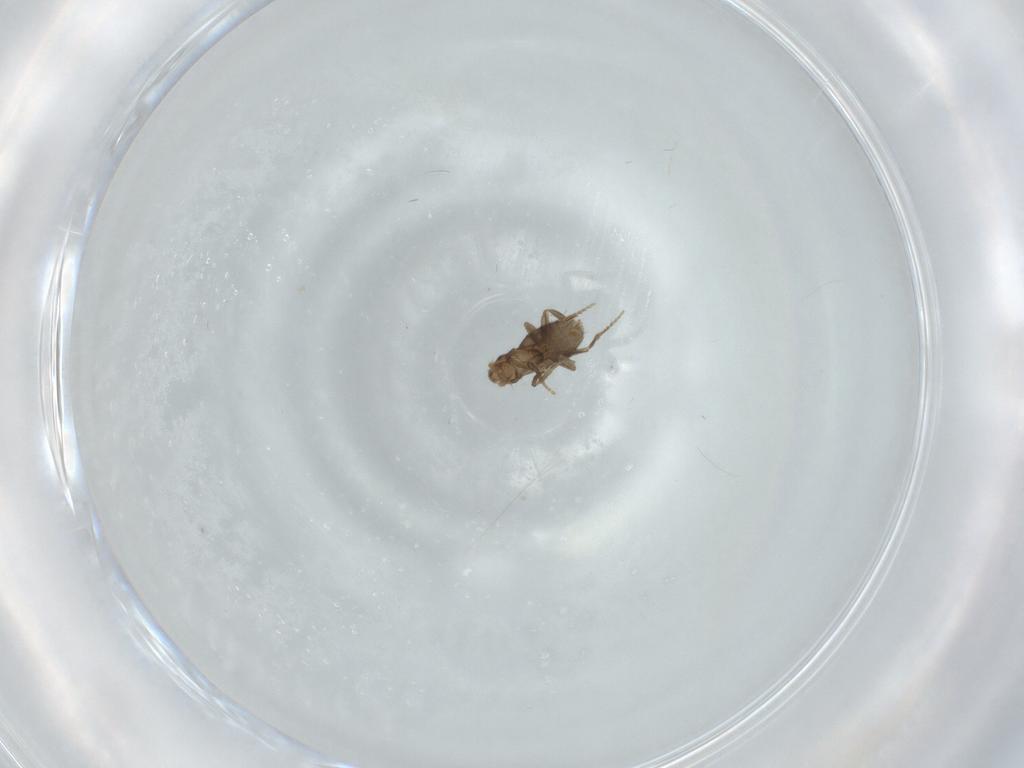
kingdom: Animalia
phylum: Arthropoda
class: Insecta
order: Diptera
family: Phoridae
